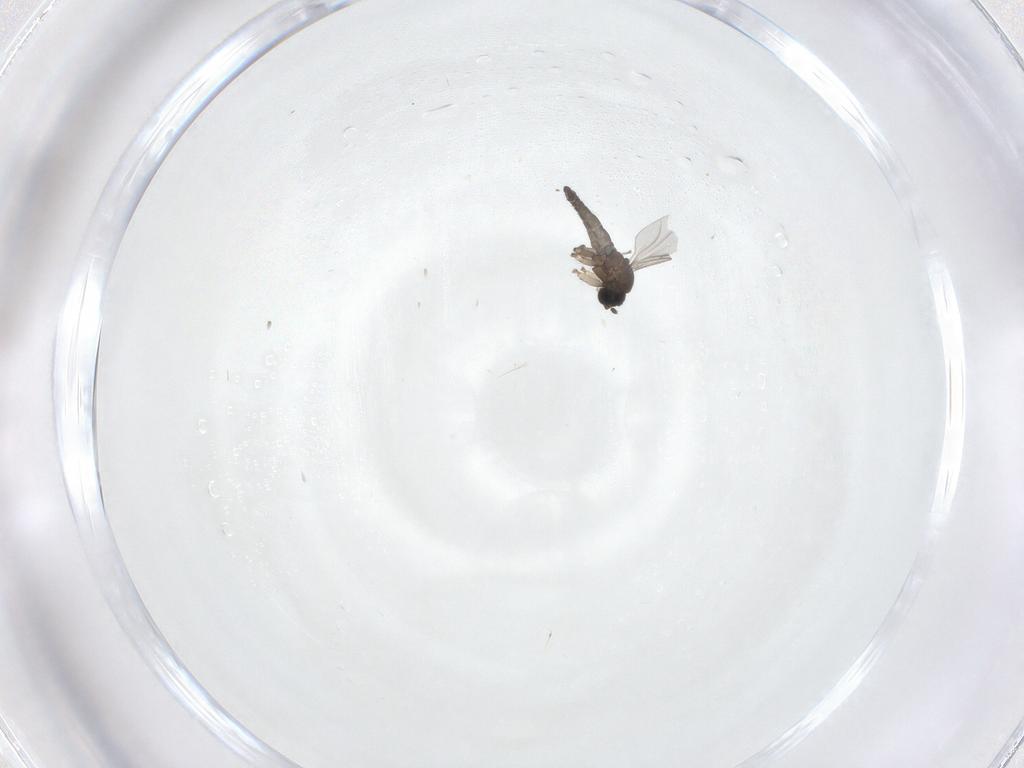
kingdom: Animalia
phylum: Arthropoda
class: Insecta
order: Diptera
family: Sciaridae
